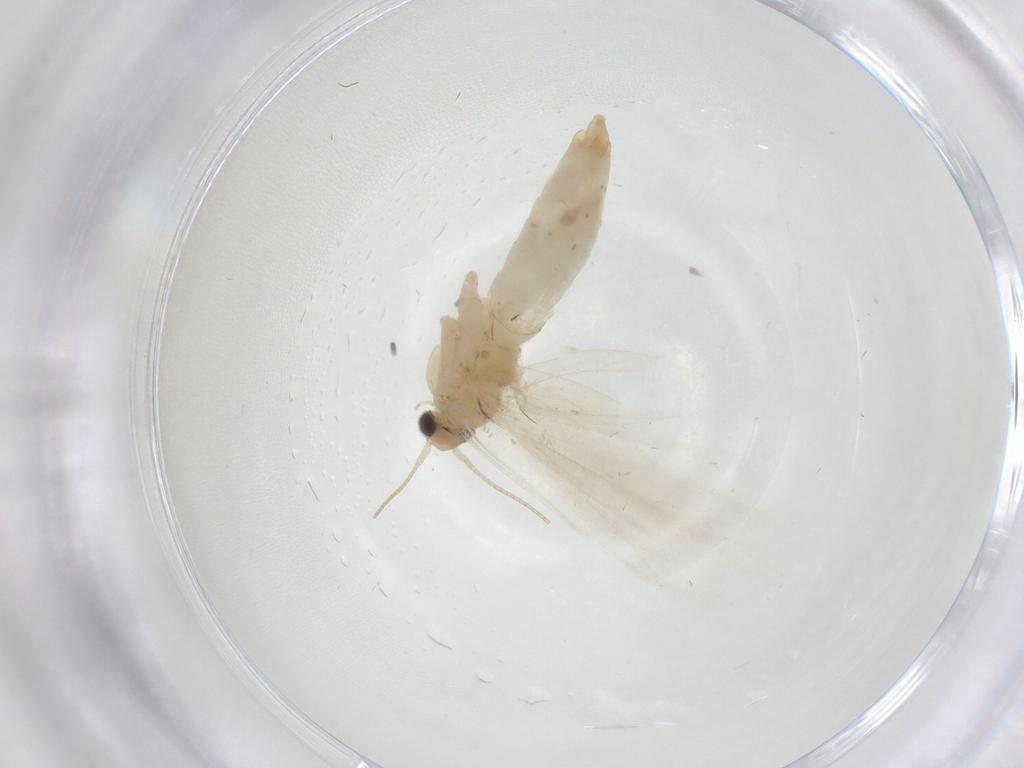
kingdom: Animalia
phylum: Arthropoda
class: Insecta
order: Lepidoptera
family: Tineidae
